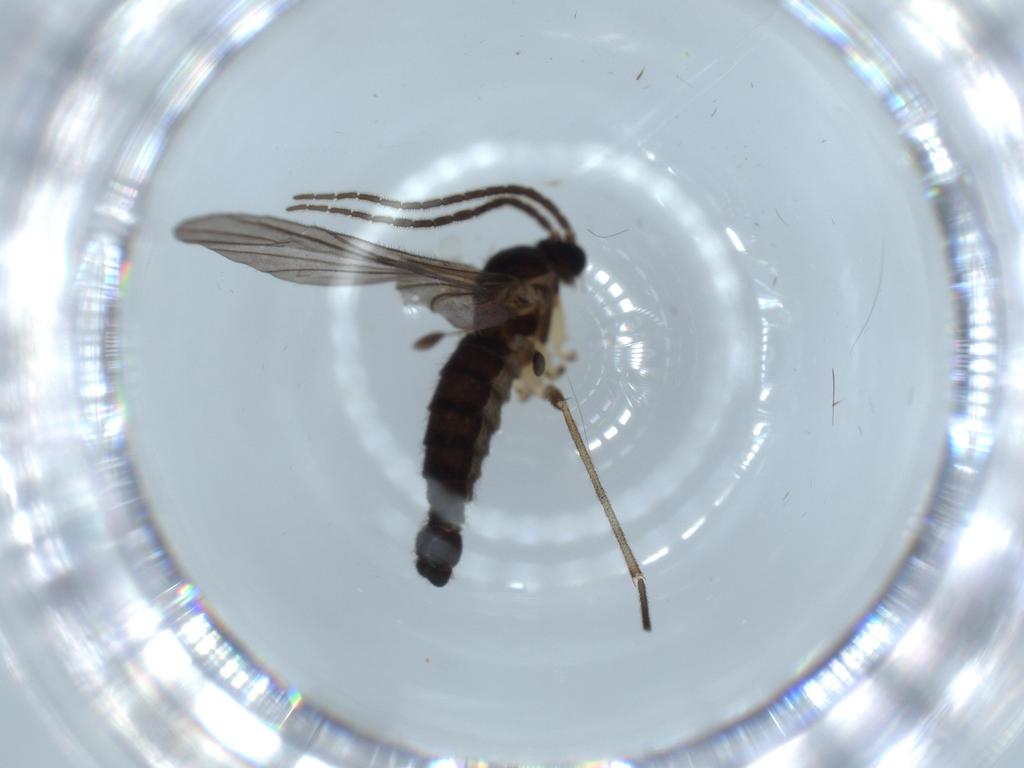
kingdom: Animalia
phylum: Arthropoda
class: Insecta
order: Diptera
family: Sciaridae
